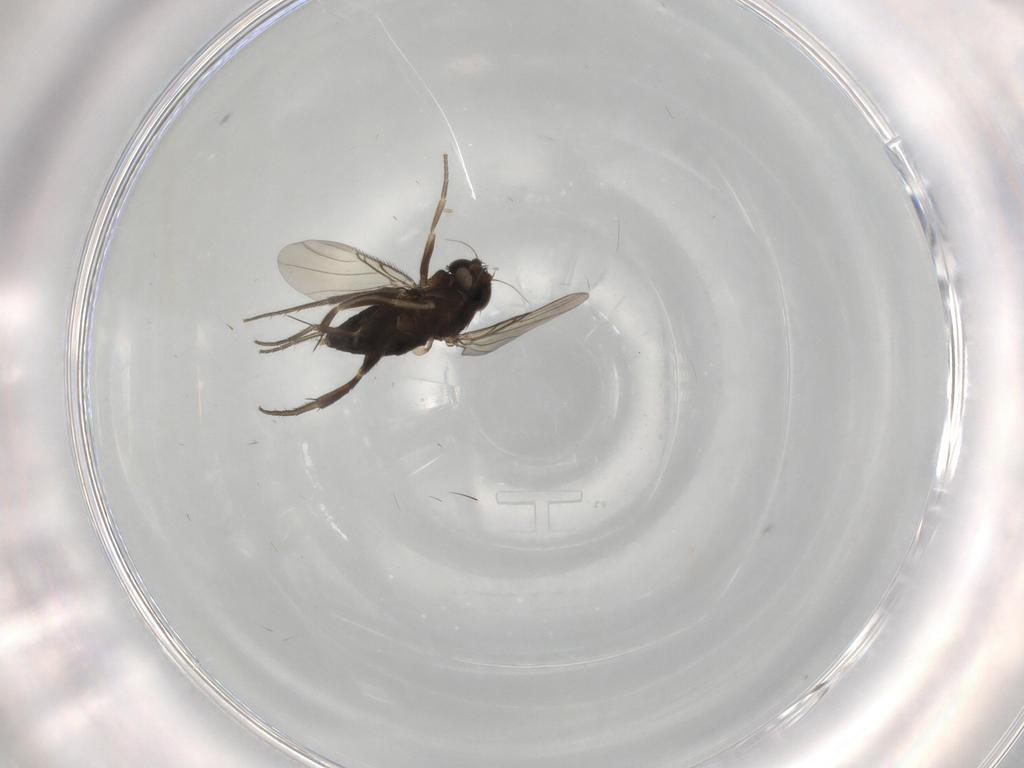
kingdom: Animalia
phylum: Arthropoda
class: Insecta
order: Diptera
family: Phoridae
